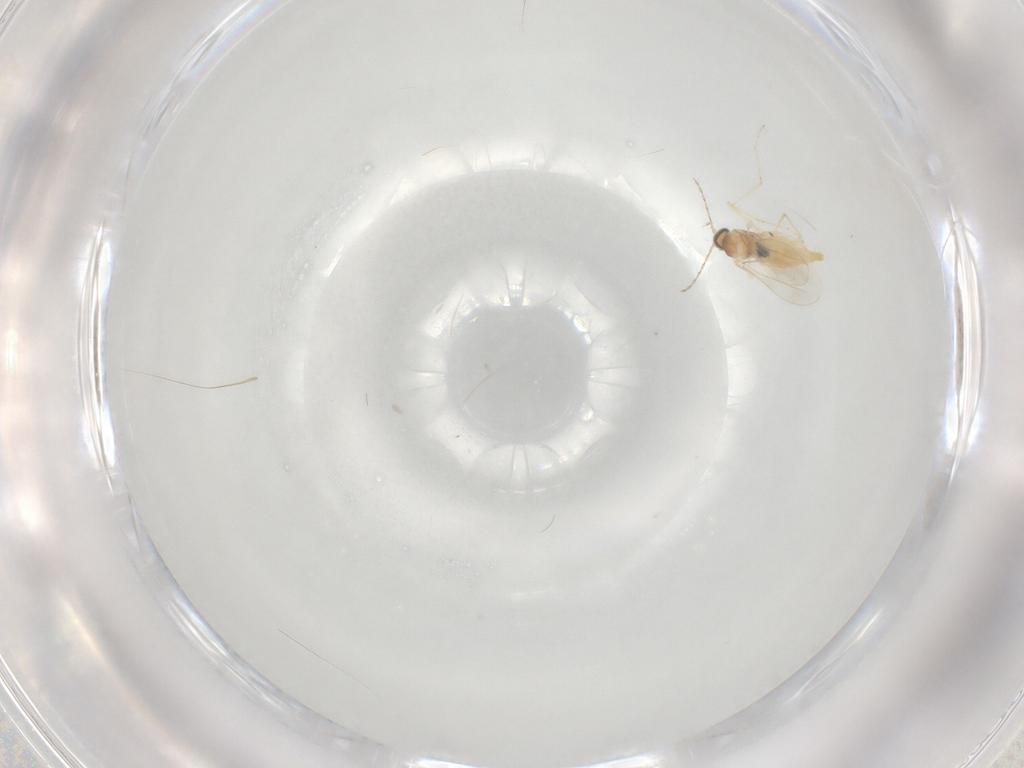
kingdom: Animalia
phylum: Arthropoda
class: Insecta
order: Diptera
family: Cecidomyiidae
